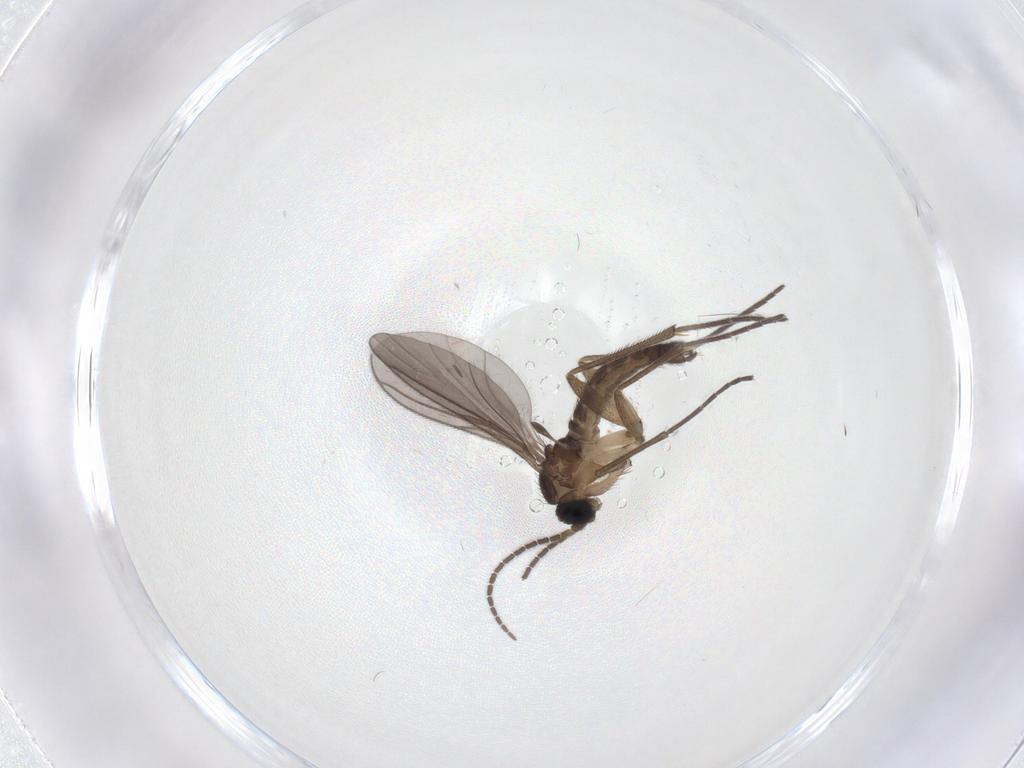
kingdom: Animalia
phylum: Arthropoda
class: Insecta
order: Diptera
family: Sciaridae
